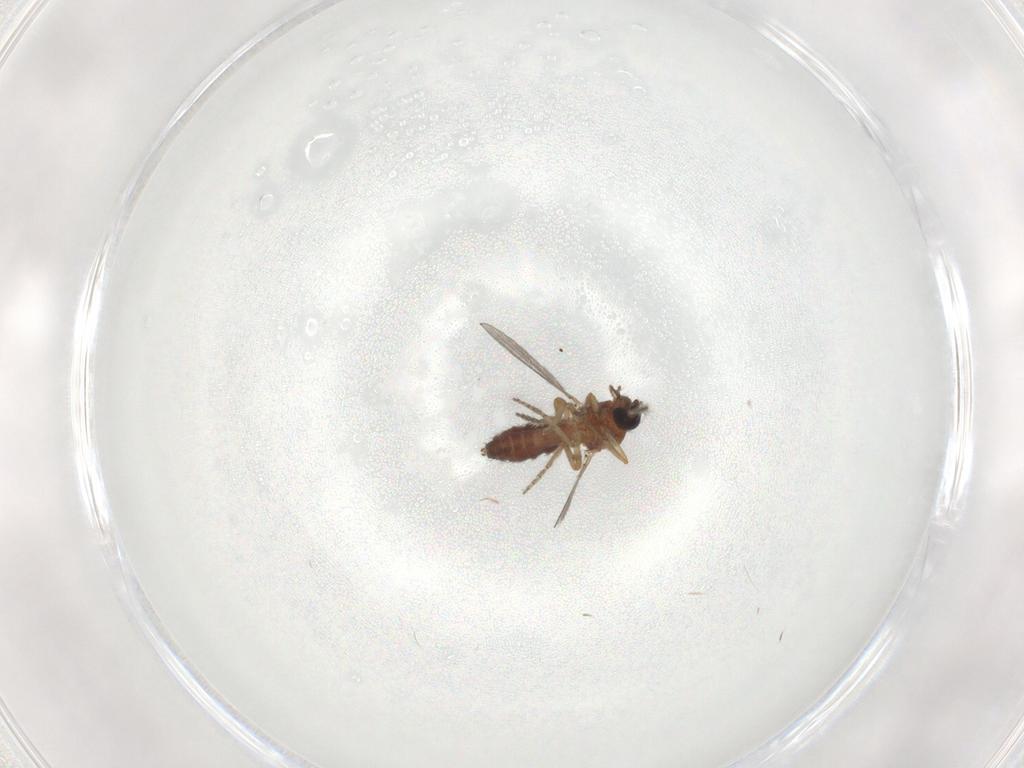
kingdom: Animalia
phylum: Arthropoda
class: Insecta
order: Diptera
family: Ceratopogonidae
